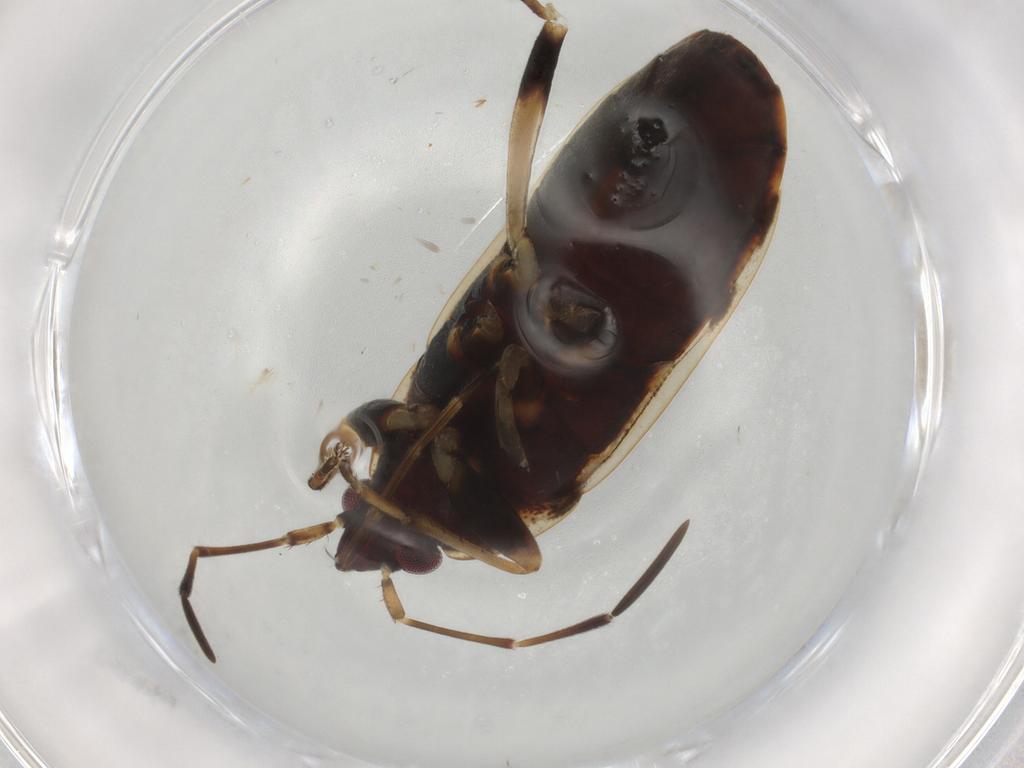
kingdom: Animalia
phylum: Arthropoda
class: Insecta
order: Hemiptera
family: Rhyparochromidae
